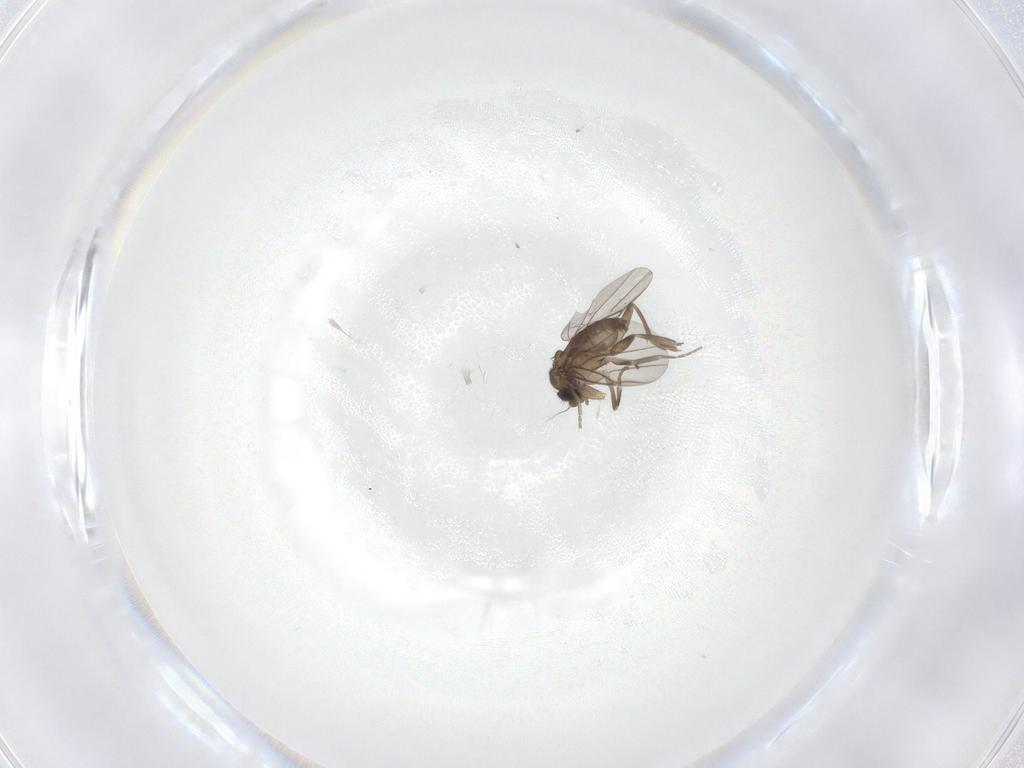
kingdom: Animalia
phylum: Arthropoda
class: Insecta
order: Diptera
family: Phoridae
